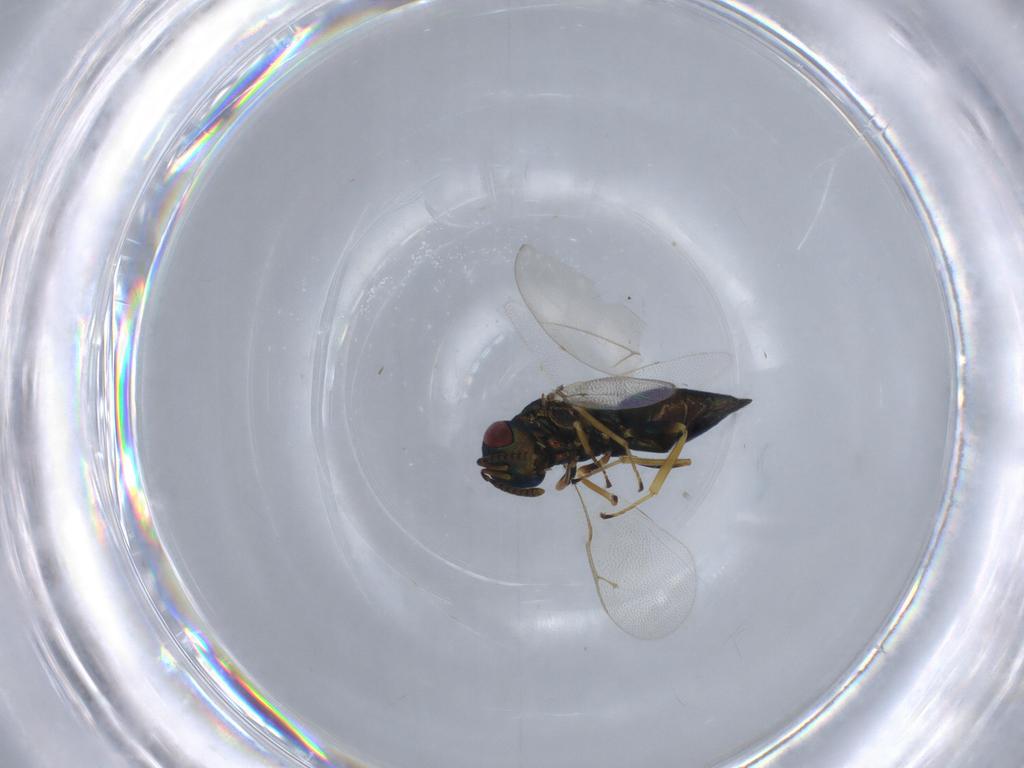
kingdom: Animalia
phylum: Arthropoda
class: Insecta
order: Hymenoptera
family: Pteromalidae
